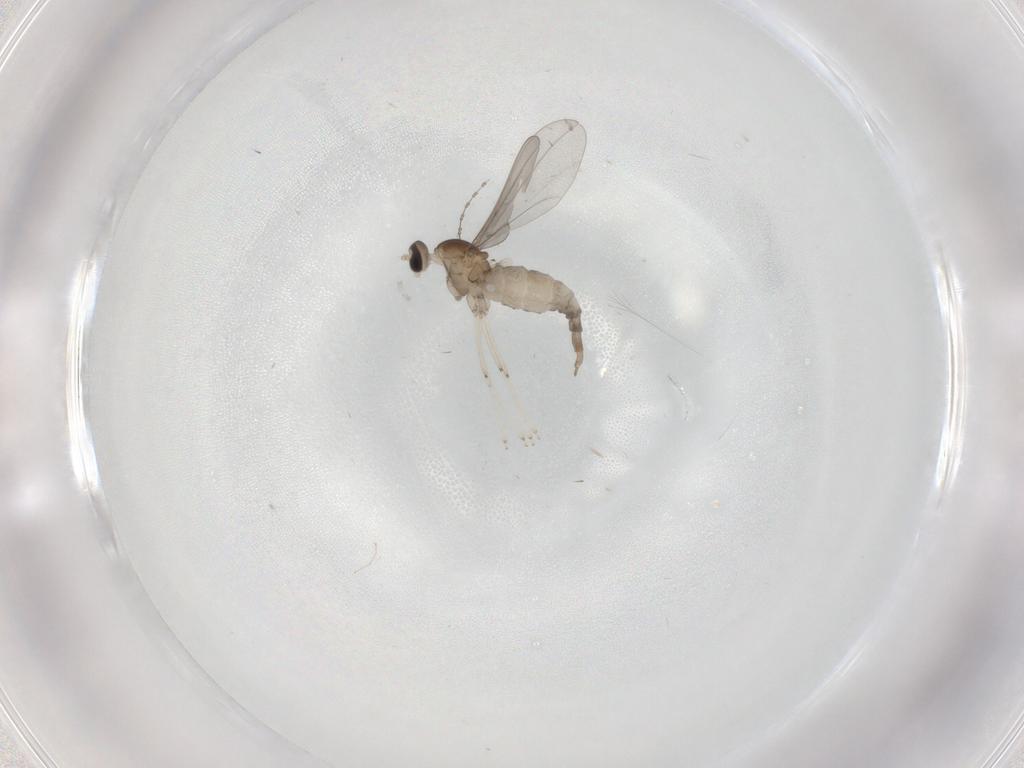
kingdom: Animalia
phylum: Arthropoda
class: Insecta
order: Diptera
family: Cecidomyiidae
